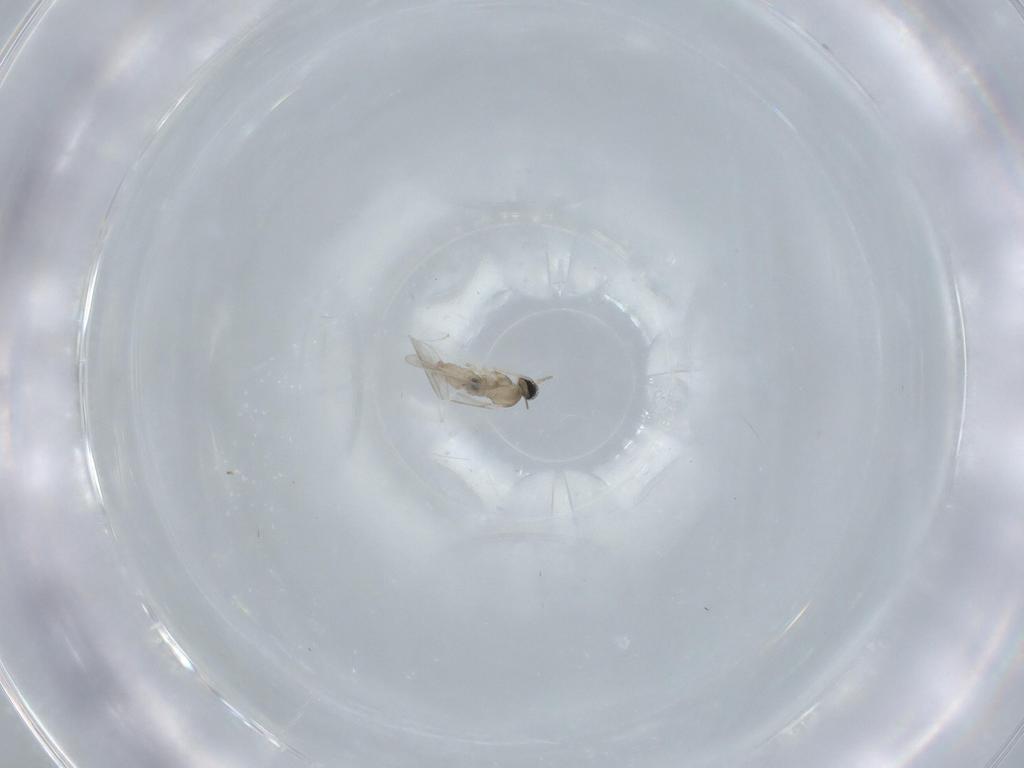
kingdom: Animalia
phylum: Arthropoda
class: Insecta
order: Diptera
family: Cecidomyiidae
